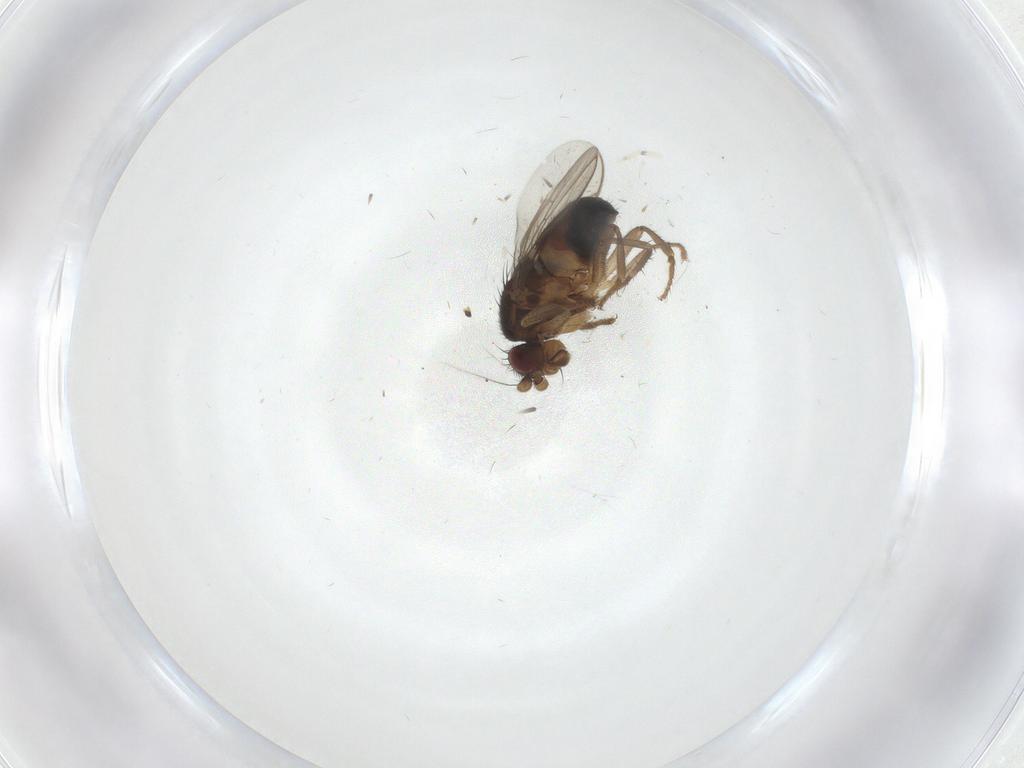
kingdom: Animalia
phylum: Arthropoda
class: Insecta
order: Diptera
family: Sphaeroceridae
